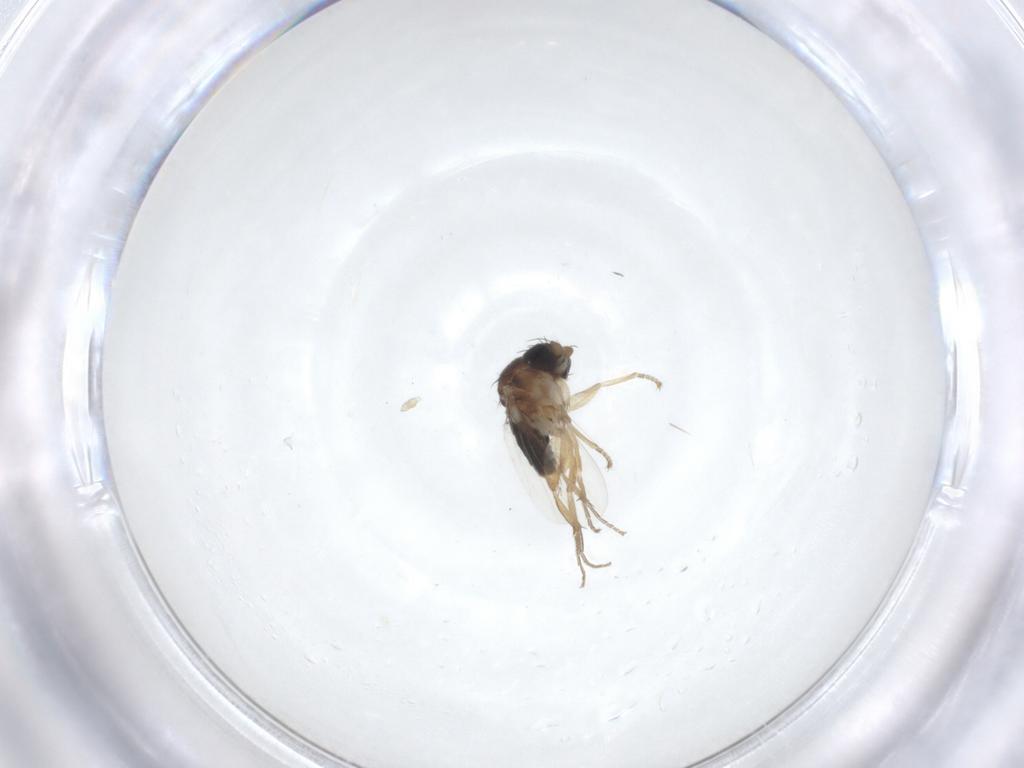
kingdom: Animalia
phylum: Arthropoda
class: Insecta
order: Diptera
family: Phoridae
